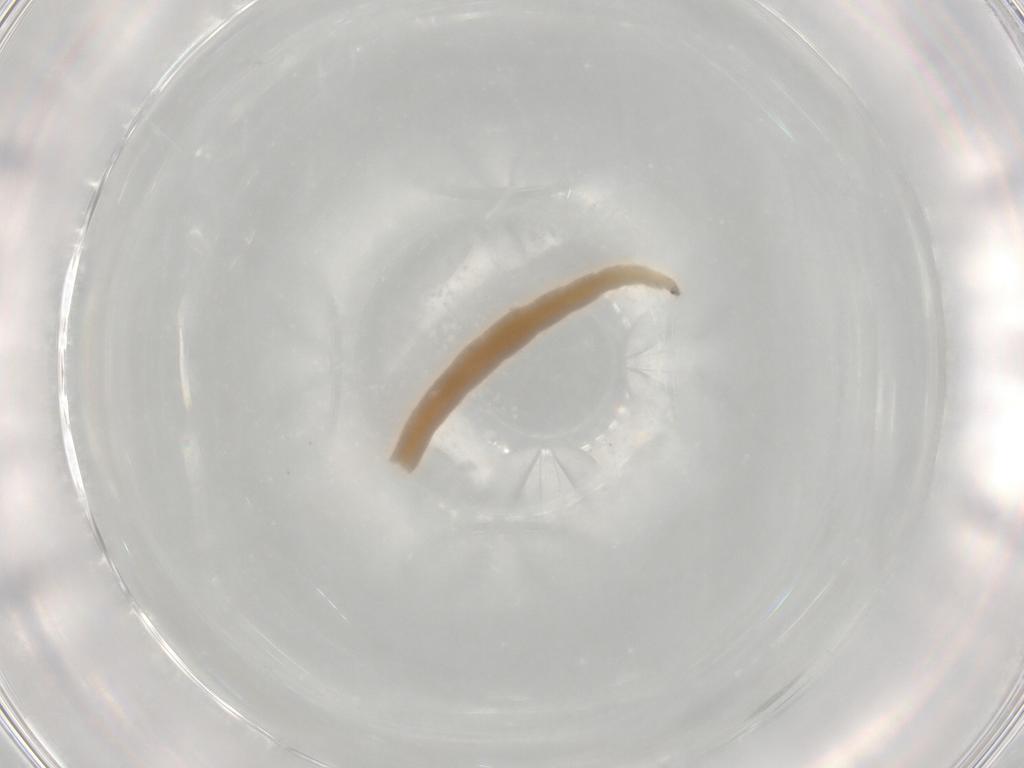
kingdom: Animalia
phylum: Arthropoda
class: Insecta
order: Diptera
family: Chironomidae
